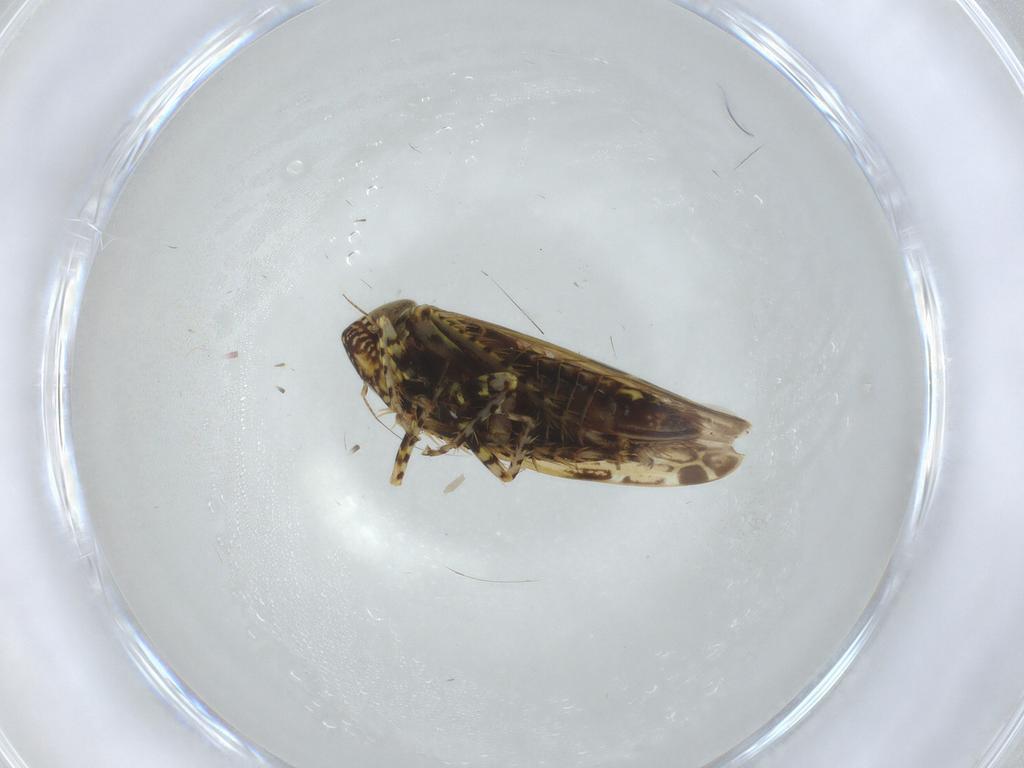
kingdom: Animalia
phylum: Arthropoda
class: Insecta
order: Hemiptera
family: Cicadellidae
